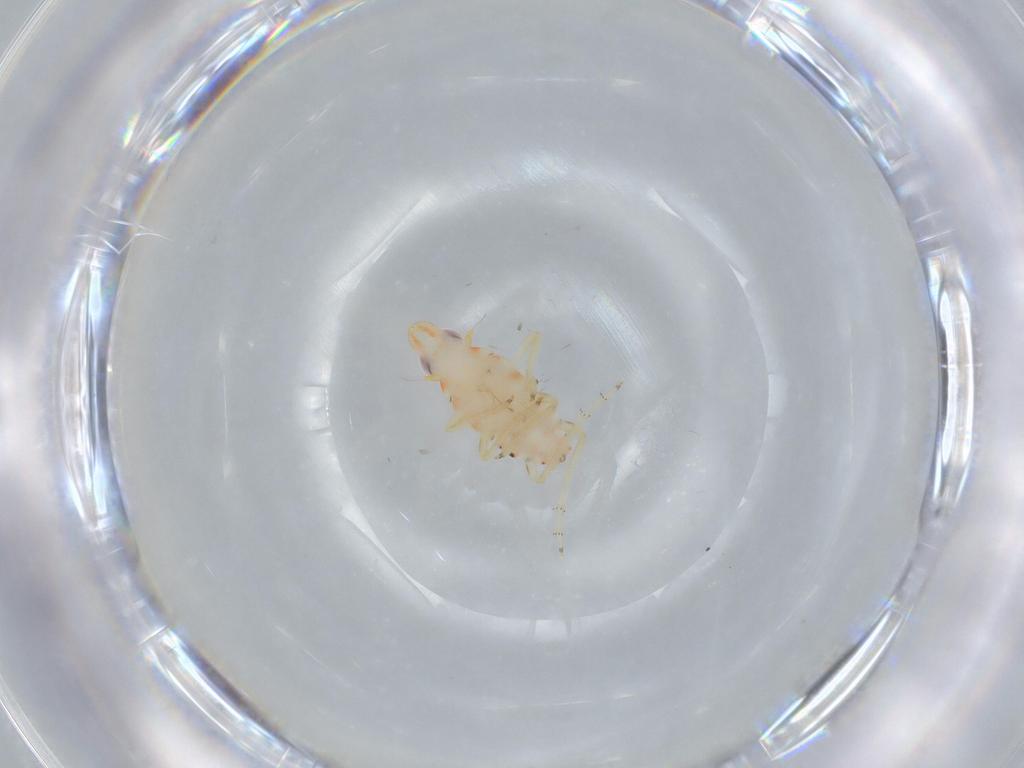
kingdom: Animalia
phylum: Arthropoda
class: Insecta
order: Hemiptera
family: Tropiduchidae
